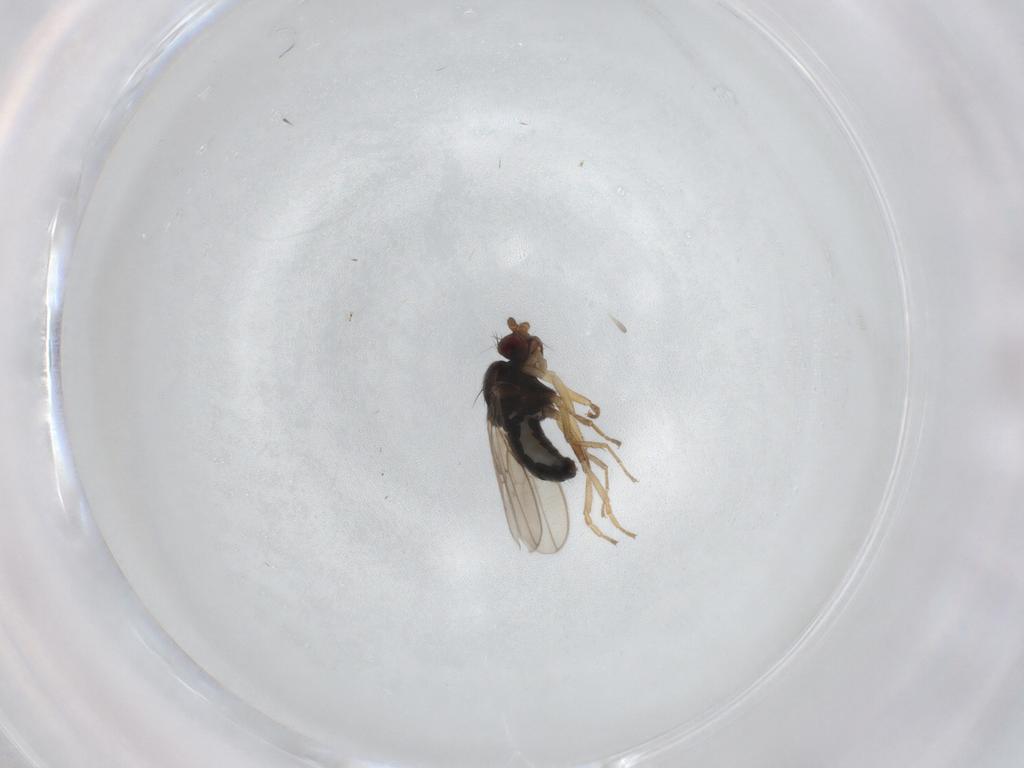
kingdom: Animalia
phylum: Arthropoda
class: Insecta
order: Diptera
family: Sphaeroceridae
